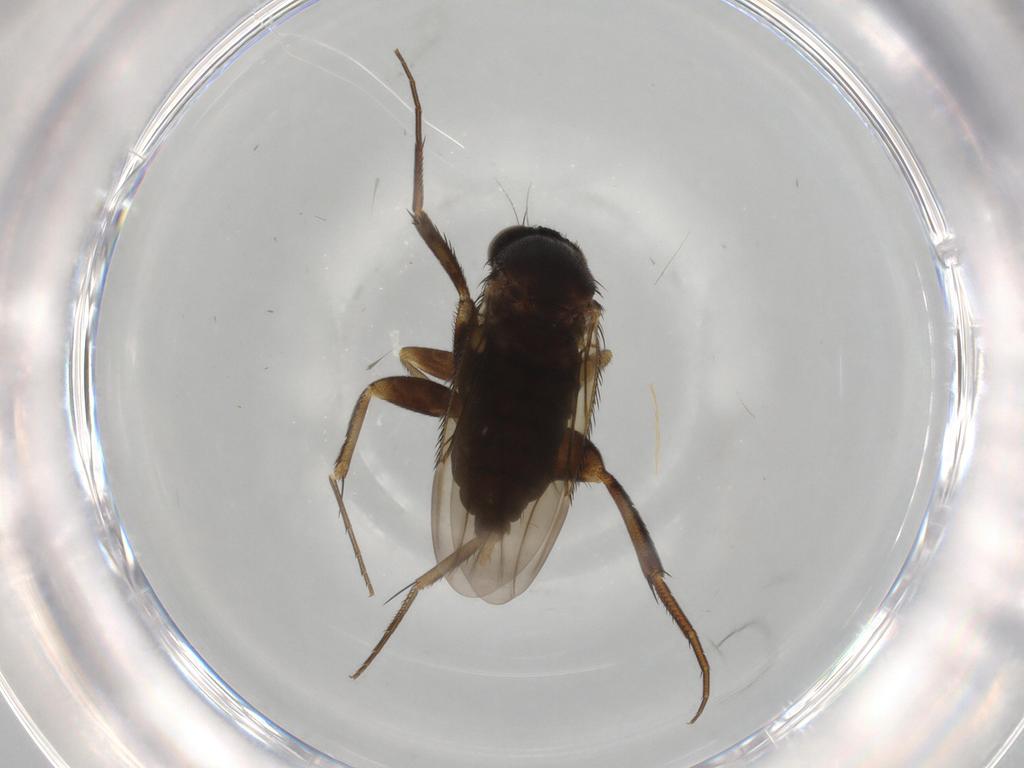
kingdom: Animalia
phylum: Arthropoda
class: Insecta
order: Diptera
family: Phoridae
